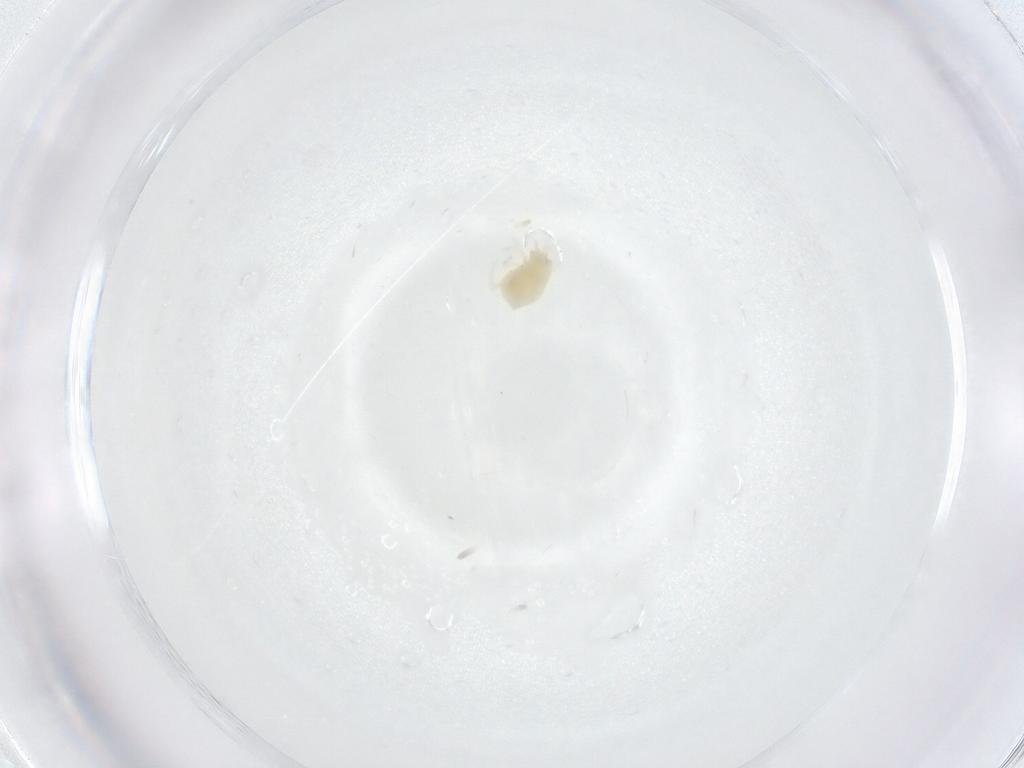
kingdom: Animalia
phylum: Arthropoda
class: Arachnida
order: Trombidiformes
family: Tetranychidae
